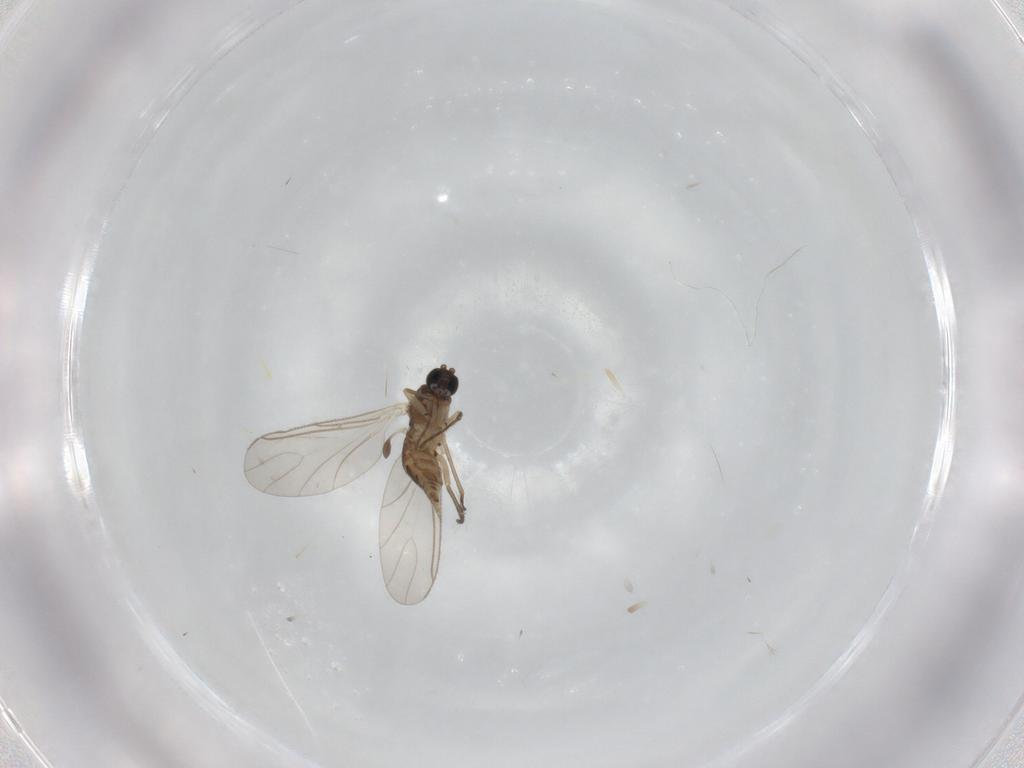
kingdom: Animalia
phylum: Arthropoda
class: Insecta
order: Diptera
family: Sciaridae
